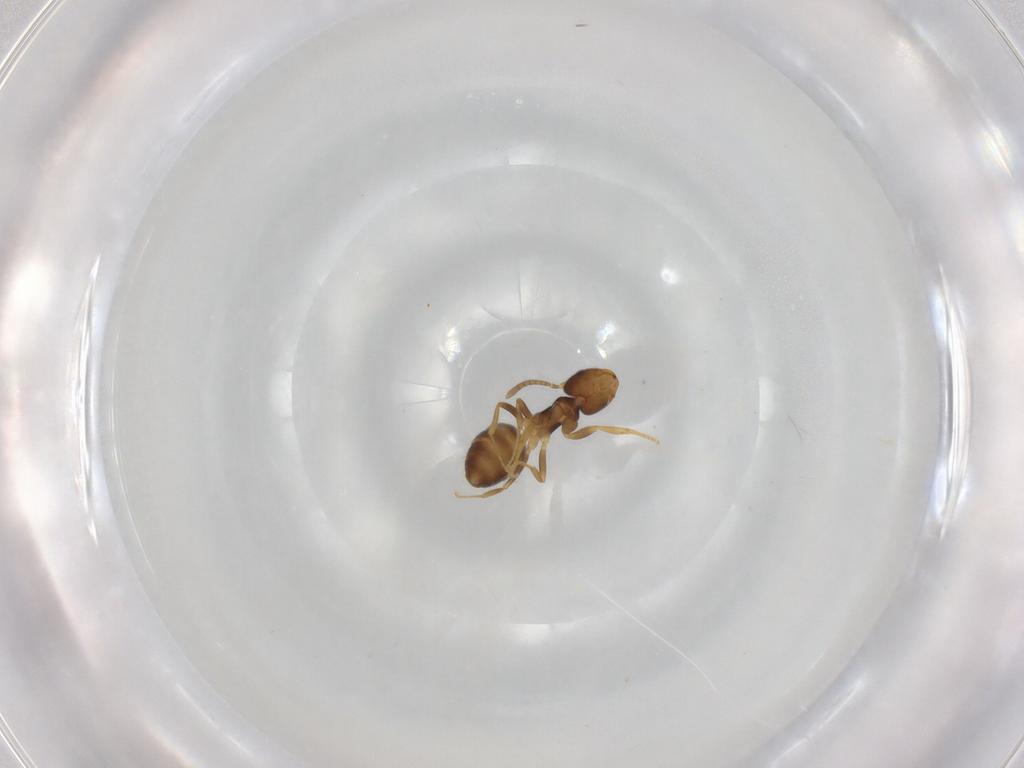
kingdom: Animalia
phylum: Arthropoda
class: Insecta
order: Hymenoptera
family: Formicidae
